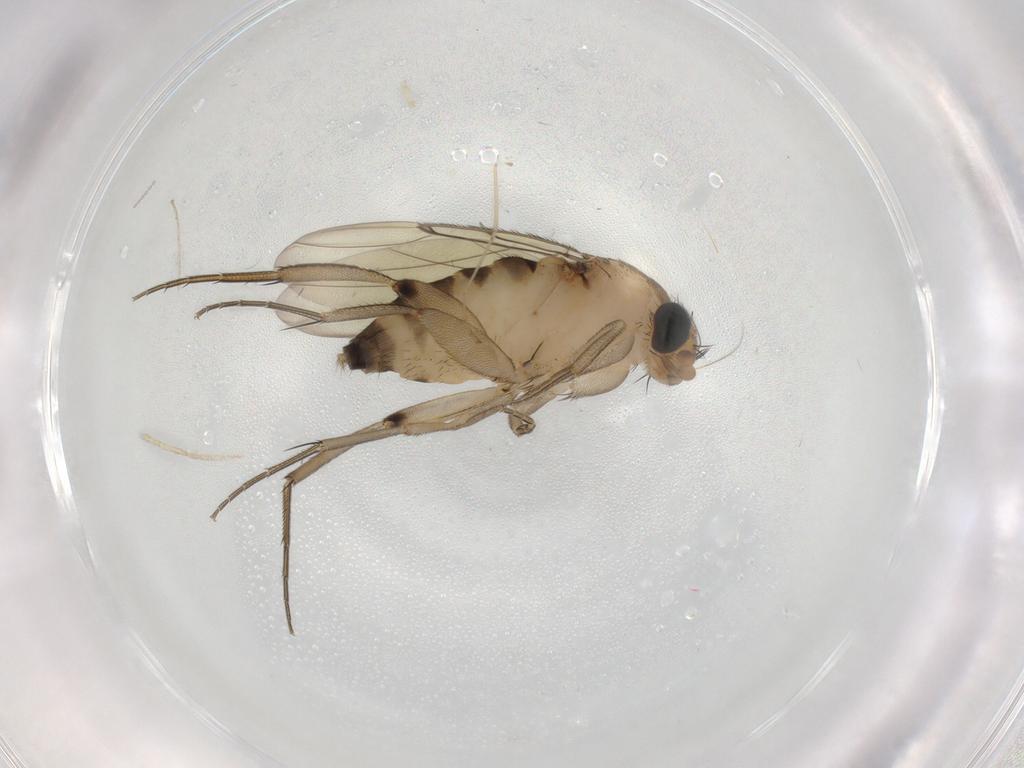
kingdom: Animalia
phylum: Arthropoda
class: Insecta
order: Diptera
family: Phoridae
